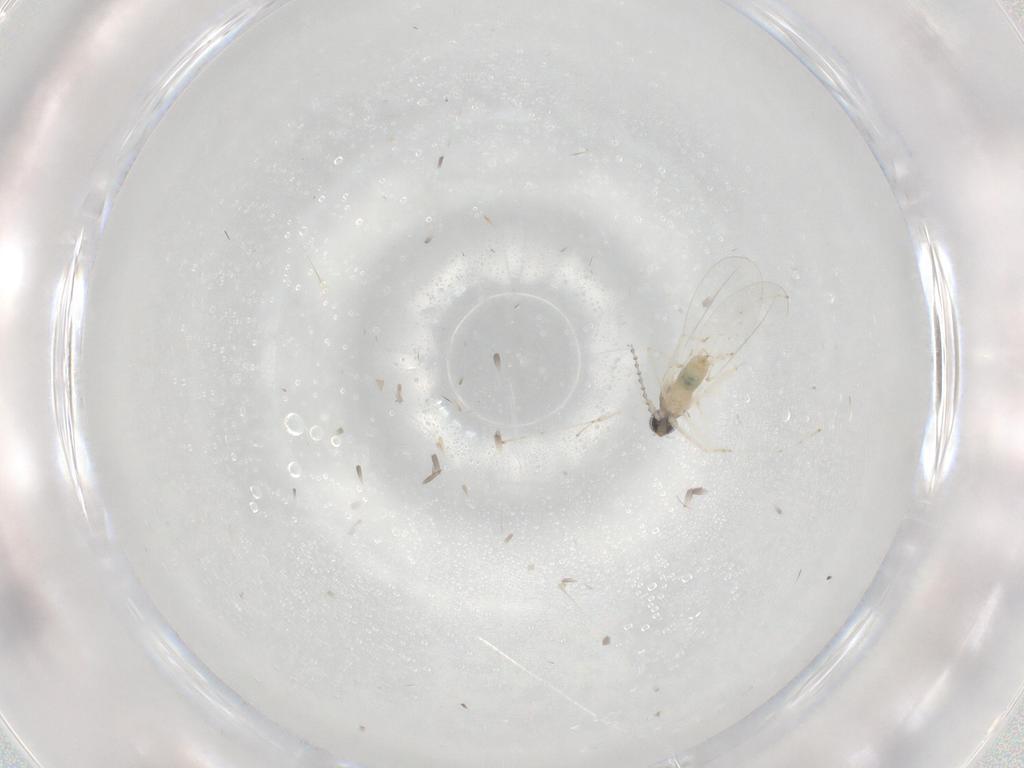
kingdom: Animalia
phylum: Arthropoda
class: Insecta
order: Diptera
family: Cecidomyiidae
